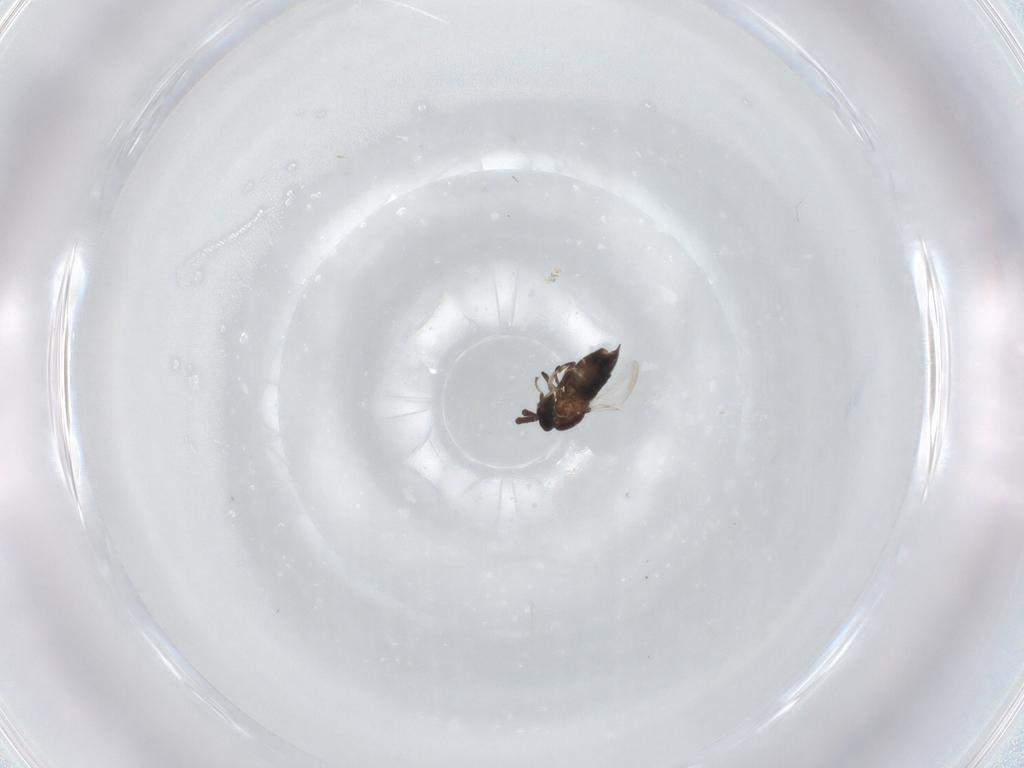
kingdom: Animalia
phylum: Arthropoda
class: Insecta
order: Diptera
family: Scatopsidae
